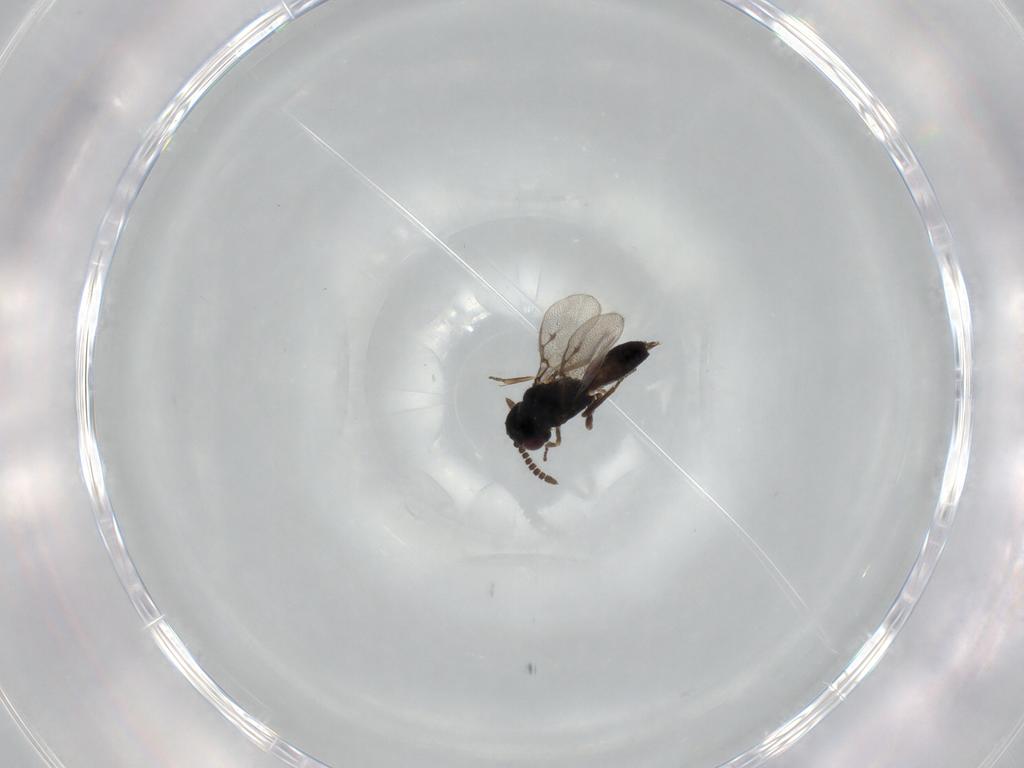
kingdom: Animalia
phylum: Arthropoda
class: Insecta
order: Hymenoptera
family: Pirenidae
